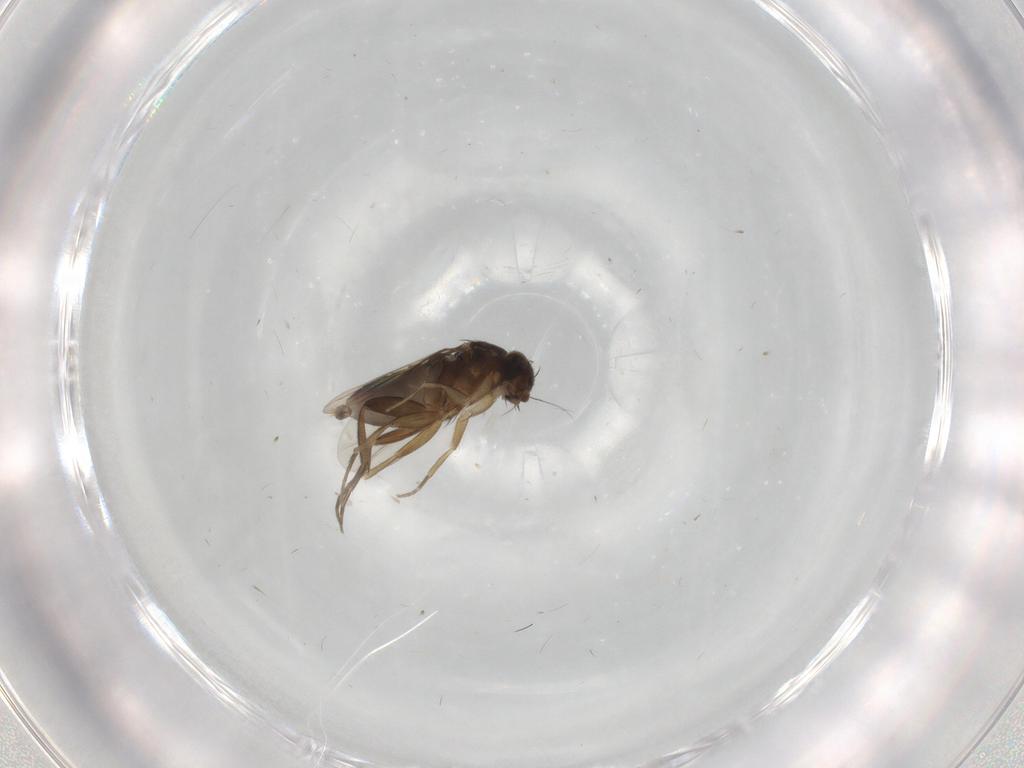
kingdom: Animalia
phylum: Arthropoda
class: Insecta
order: Diptera
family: Phoridae
